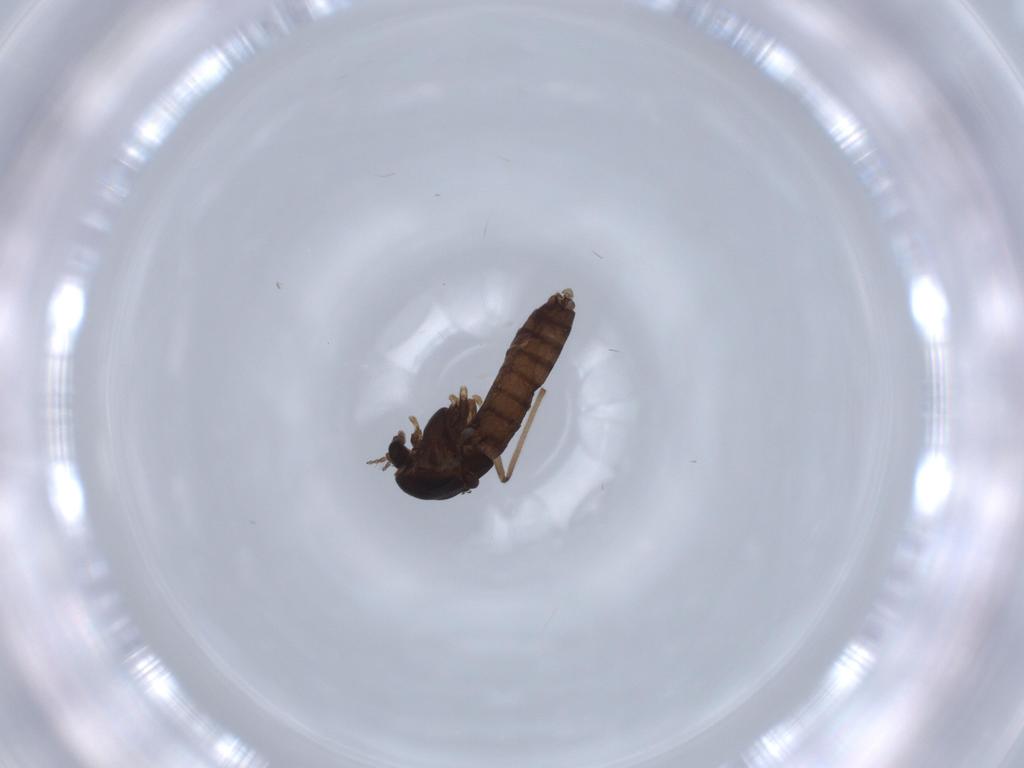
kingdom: Animalia
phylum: Arthropoda
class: Insecta
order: Diptera
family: Chironomidae
